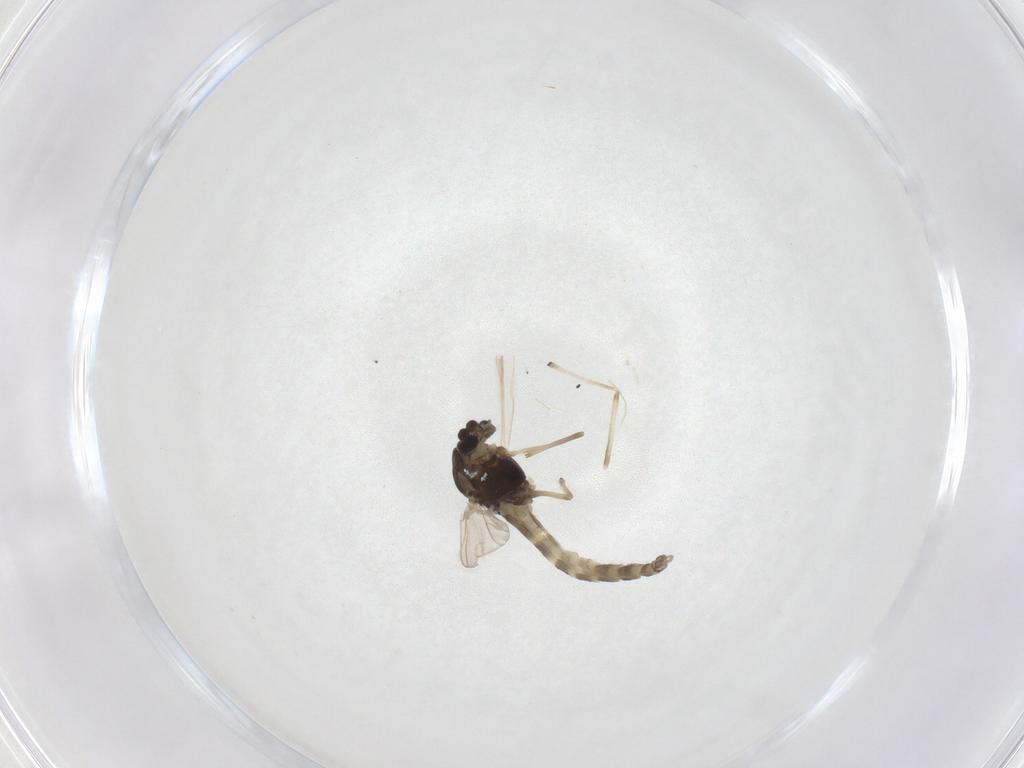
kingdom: Animalia
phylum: Arthropoda
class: Insecta
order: Diptera
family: Chironomidae
